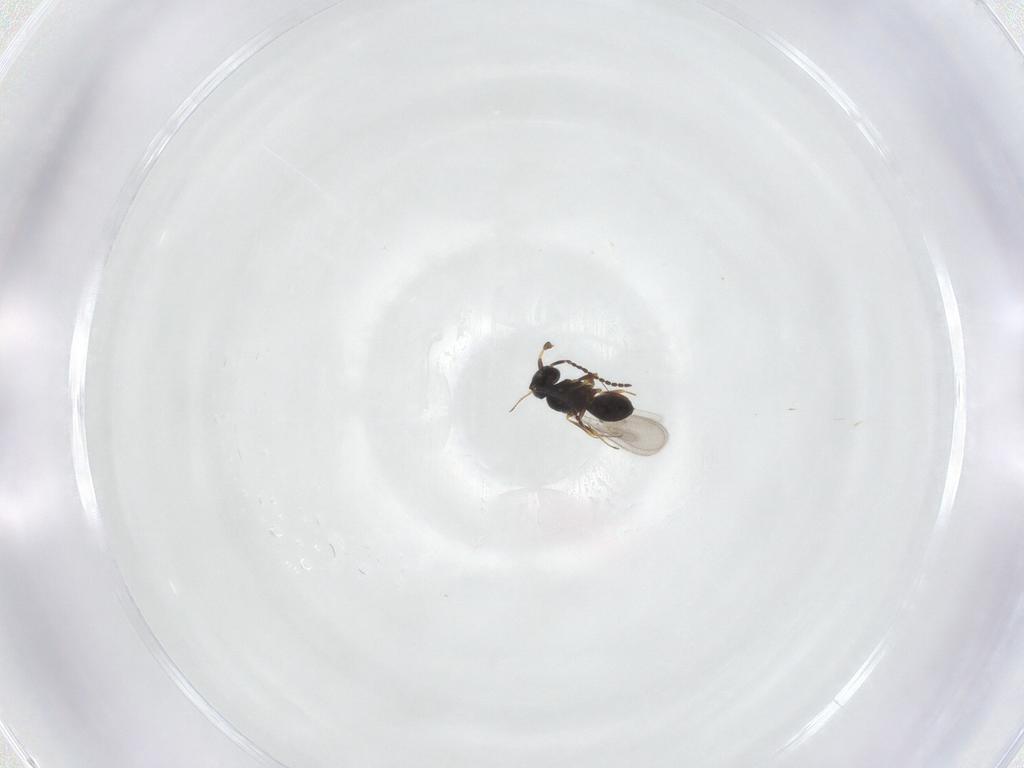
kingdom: Animalia
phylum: Arthropoda
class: Insecta
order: Hymenoptera
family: Scelionidae
